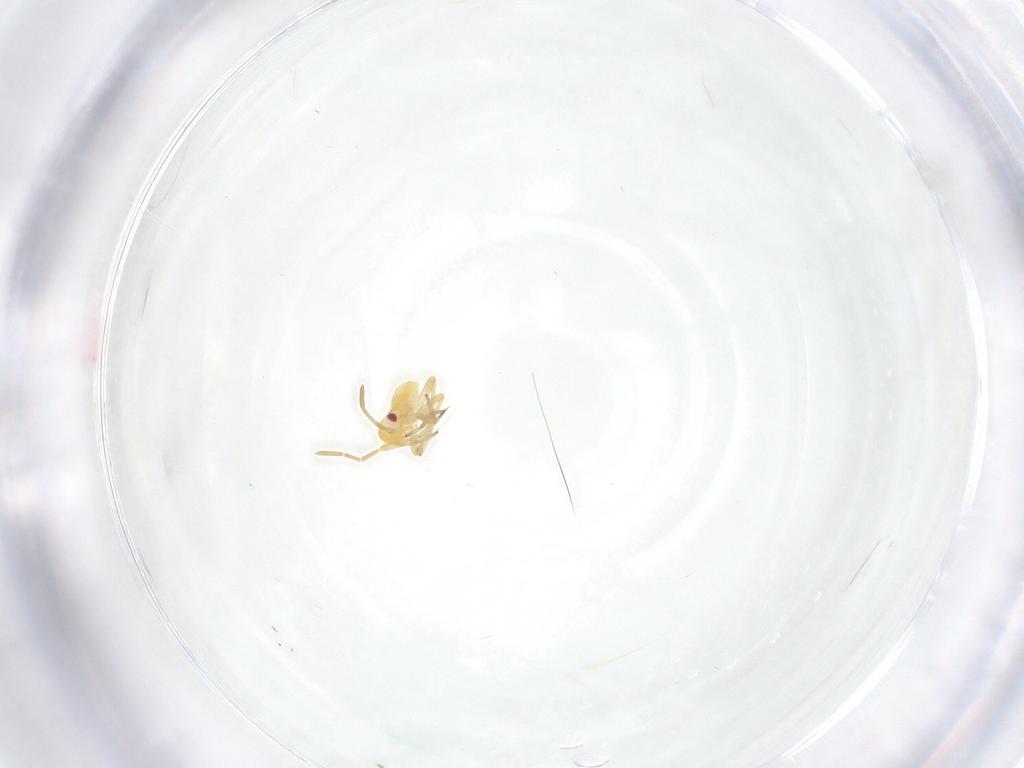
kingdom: Animalia
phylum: Arthropoda
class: Insecta
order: Hemiptera
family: Miridae
